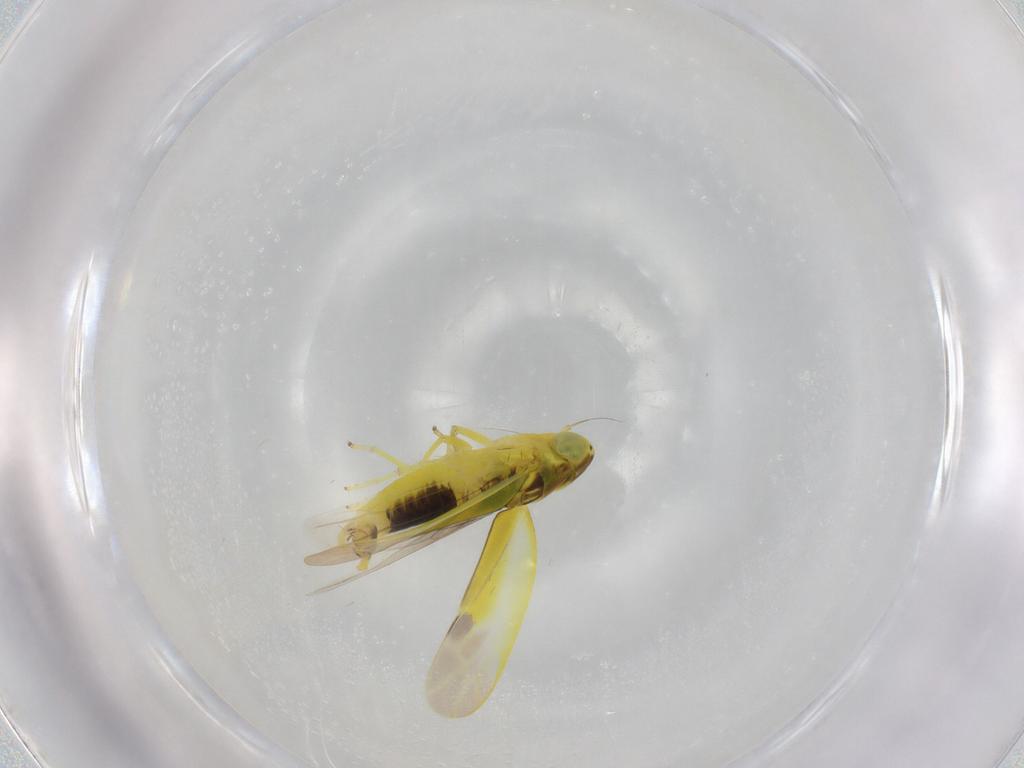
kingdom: Animalia
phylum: Arthropoda
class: Insecta
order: Hemiptera
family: Cicadellidae
